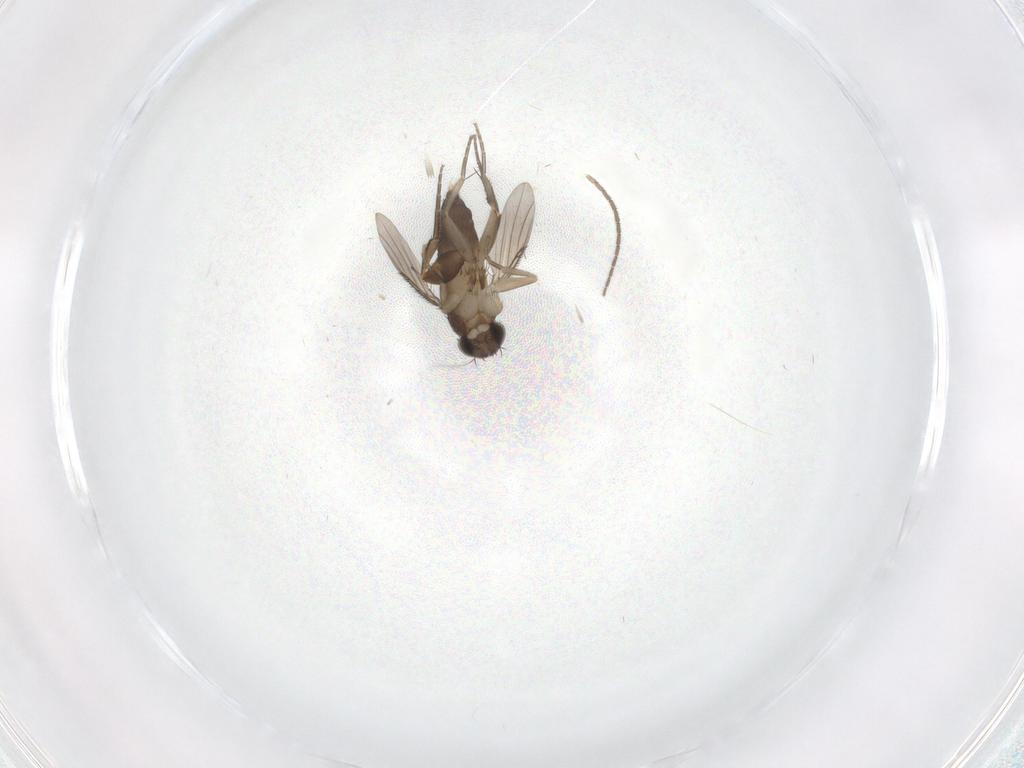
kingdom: Animalia
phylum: Arthropoda
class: Insecta
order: Diptera
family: Phoridae
